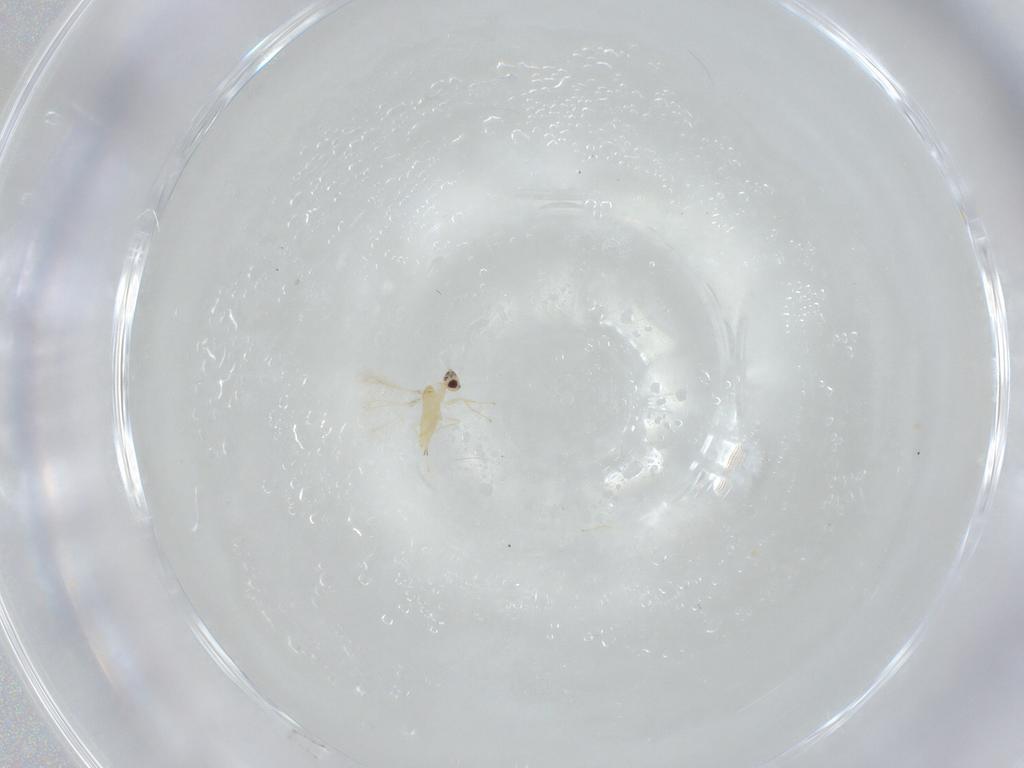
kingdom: Animalia
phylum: Arthropoda
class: Insecta
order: Hymenoptera
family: Mymaridae
